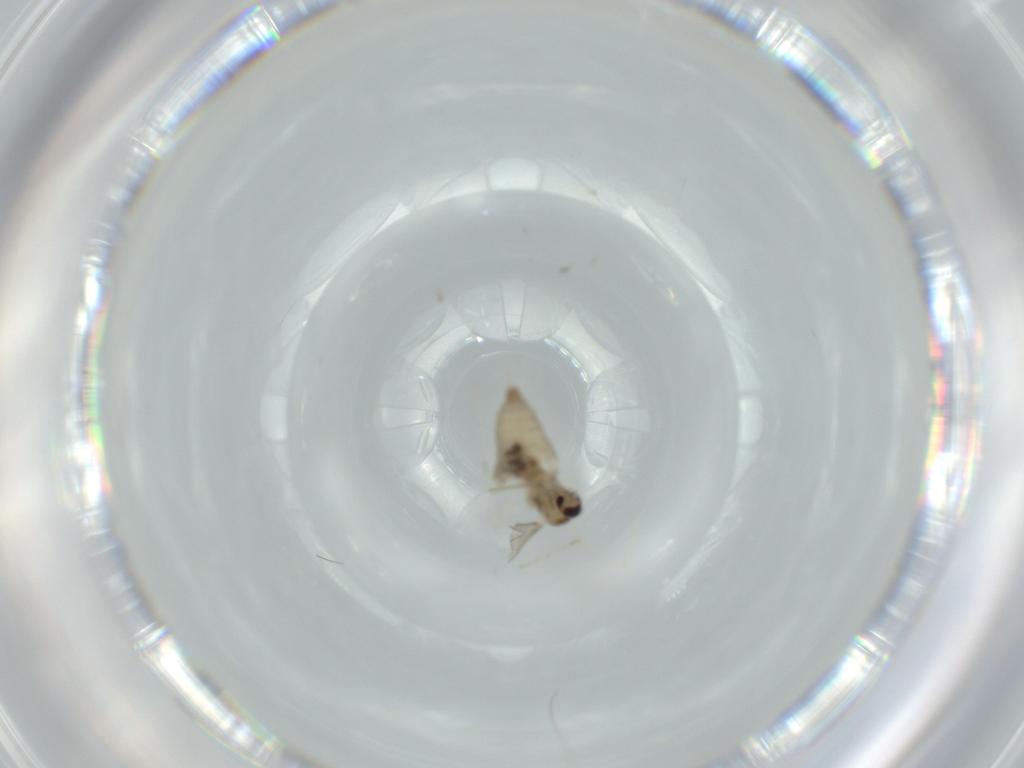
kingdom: Animalia
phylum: Arthropoda
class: Insecta
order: Diptera
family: Cecidomyiidae
